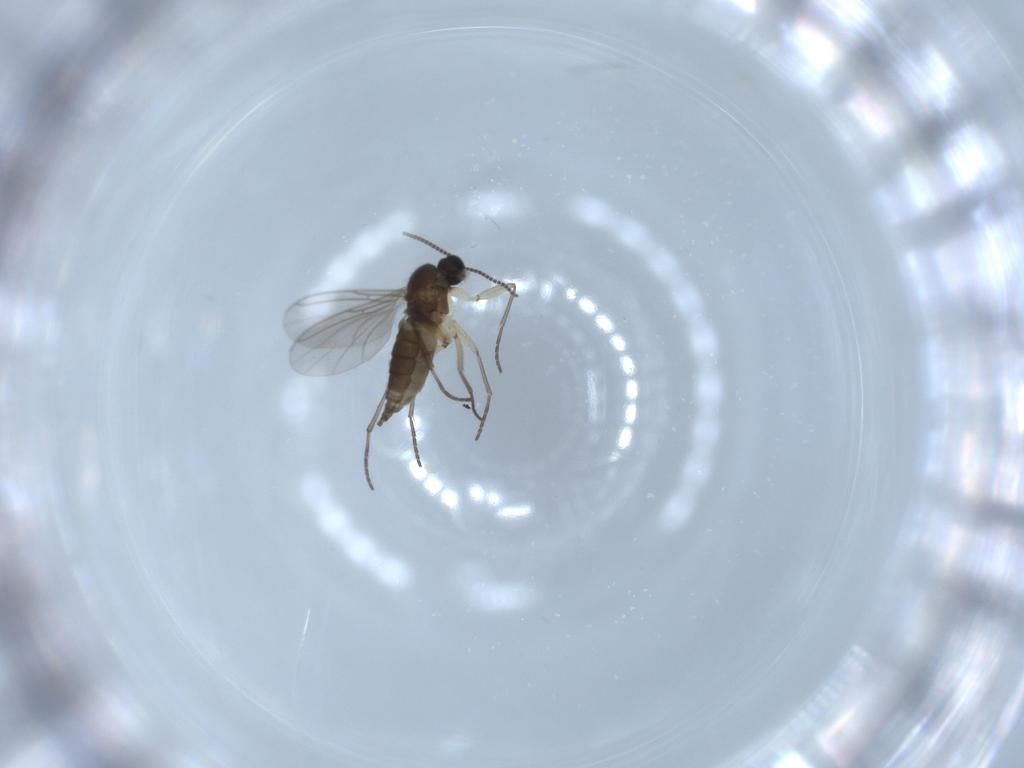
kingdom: Animalia
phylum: Arthropoda
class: Insecta
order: Diptera
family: Sciaridae
